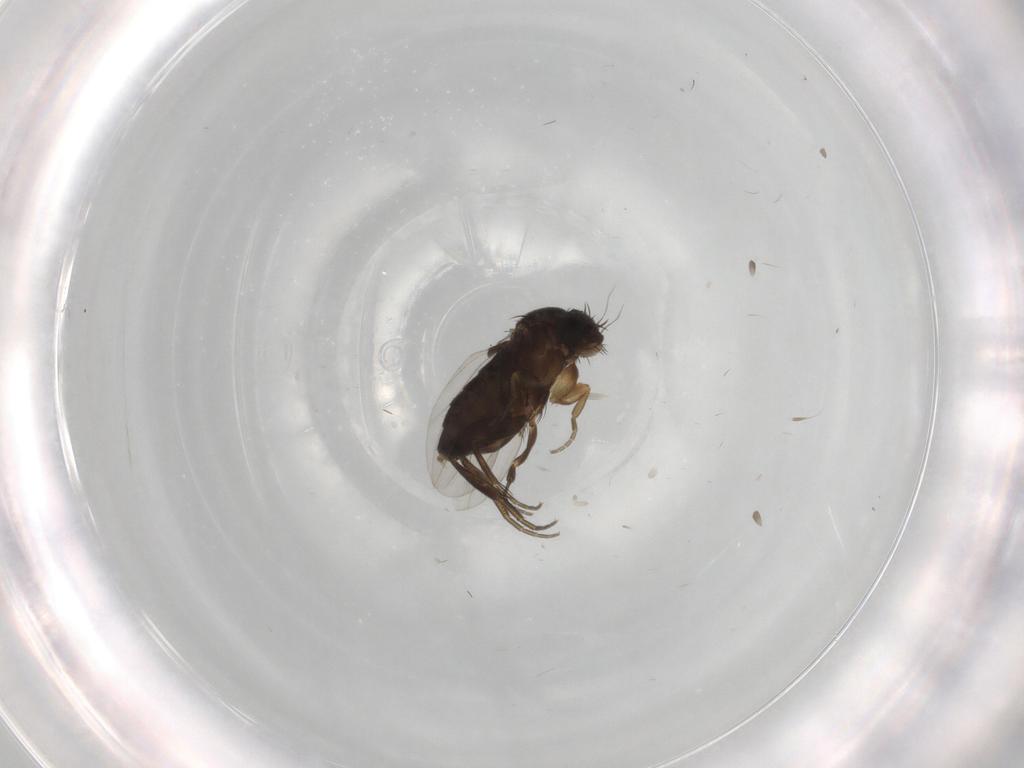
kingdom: Animalia
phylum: Arthropoda
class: Insecta
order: Diptera
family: Phoridae
